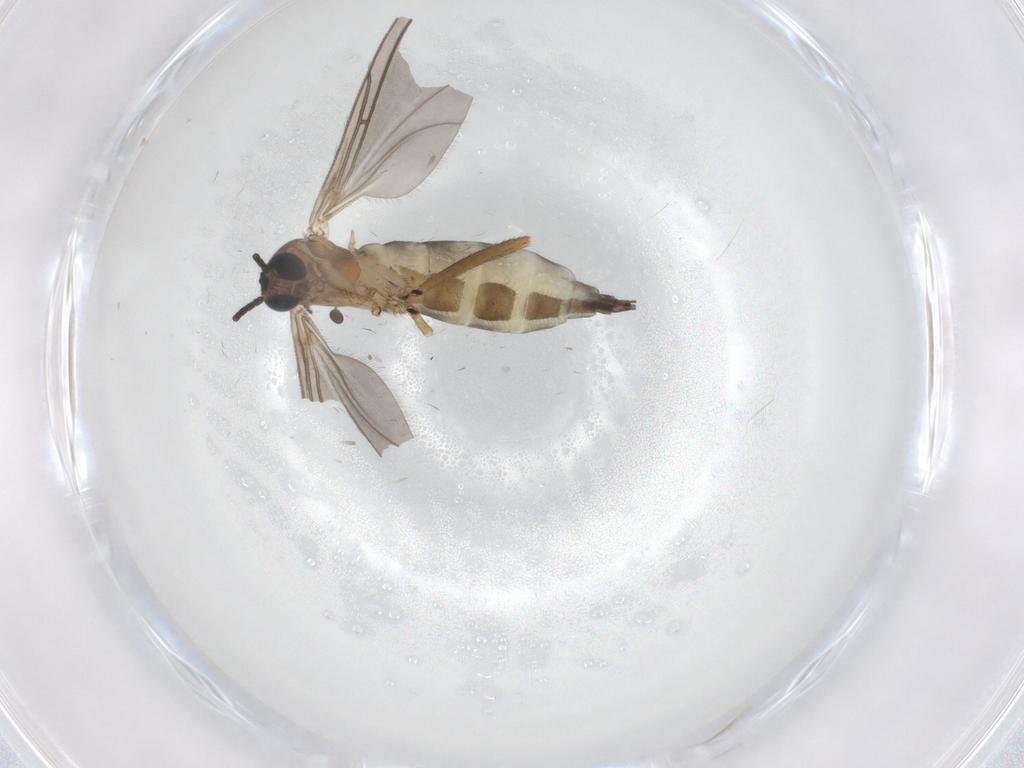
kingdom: Animalia
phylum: Arthropoda
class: Insecta
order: Diptera
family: Sciaridae
